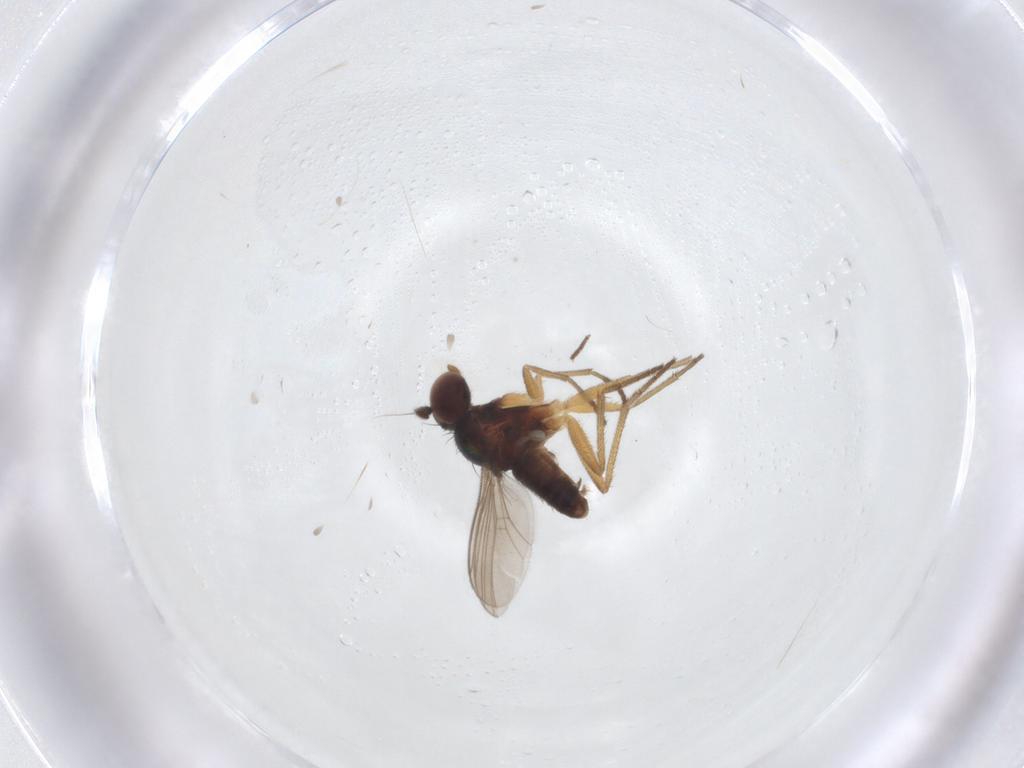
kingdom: Animalia
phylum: Arthropoda
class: Insecta
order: Diptera
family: Dolichopodidae
